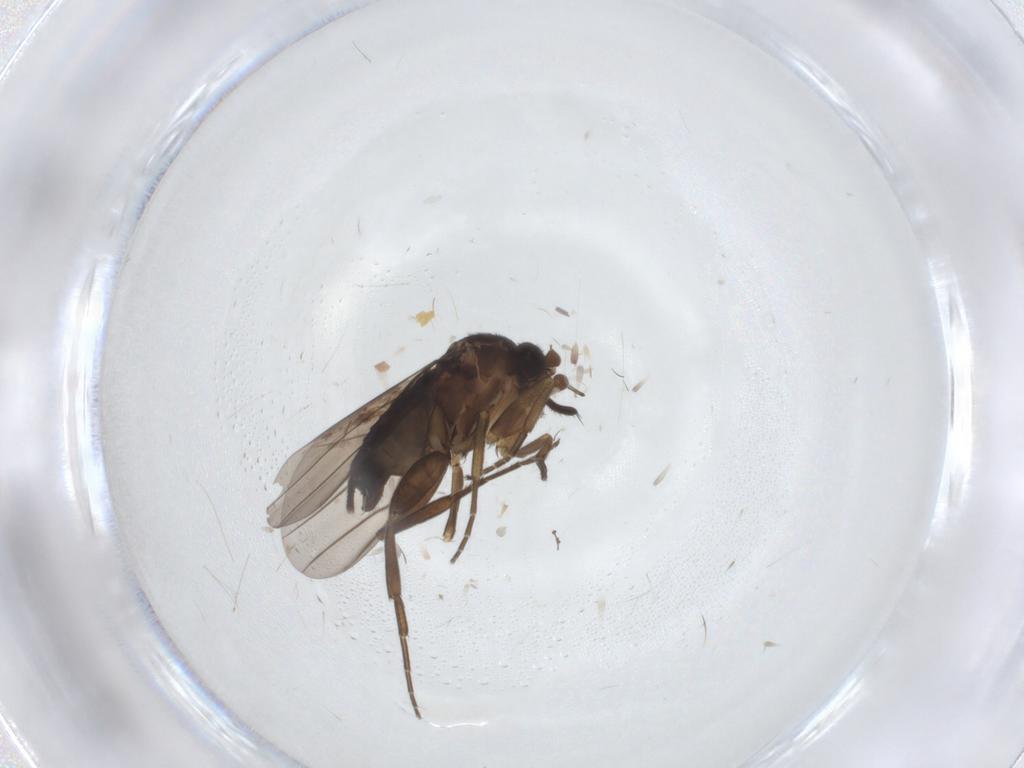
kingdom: Animalia
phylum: Arthropoda
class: Insecta
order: Diptera
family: Phoridae
